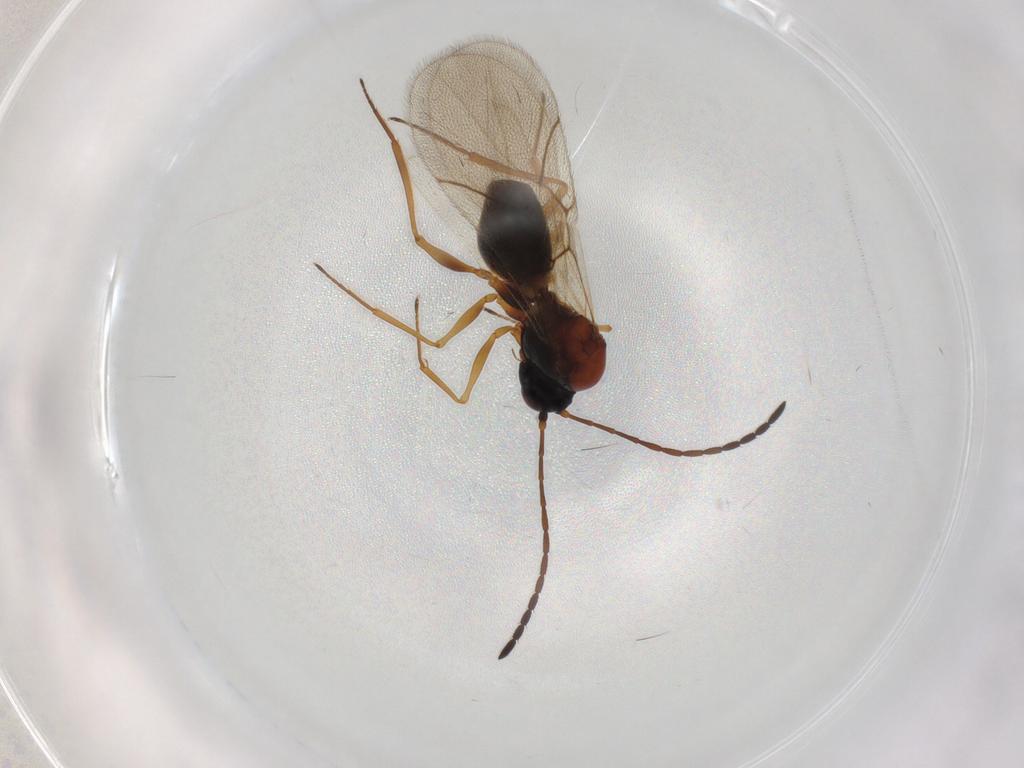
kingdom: Animalia
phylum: Arthropoda
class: Insecta
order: Hymenoptera
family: Figitidae
